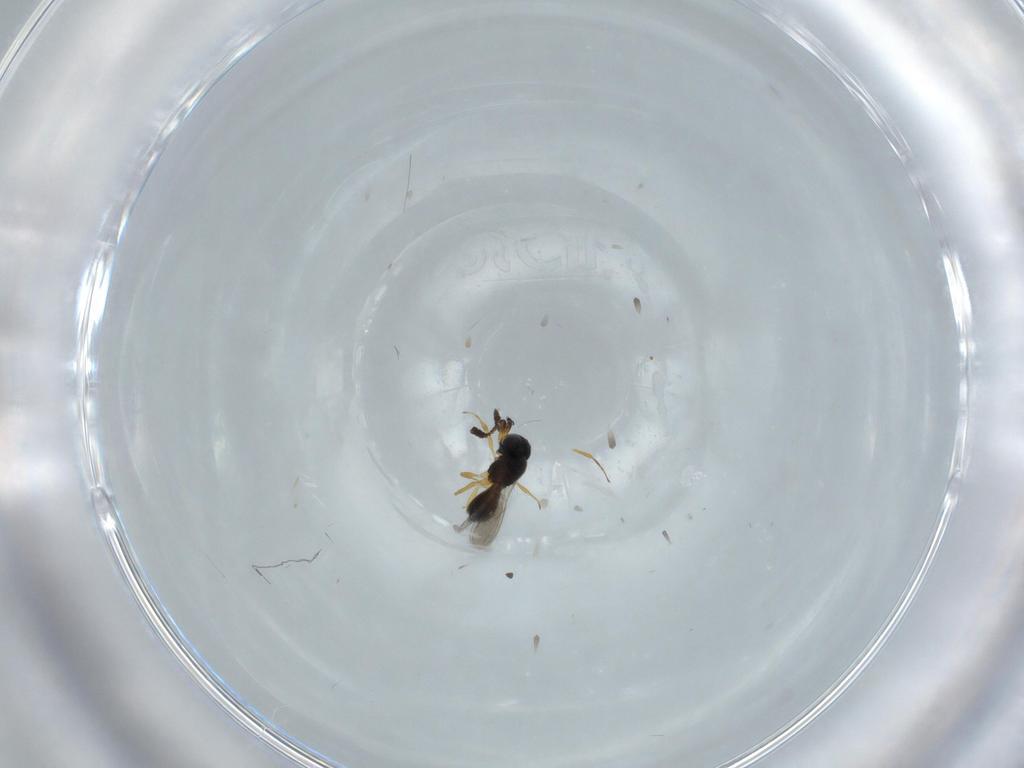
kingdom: Animalia
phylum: Arthropoda
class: Insecta
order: Hymenoptera
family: Scelionidae
